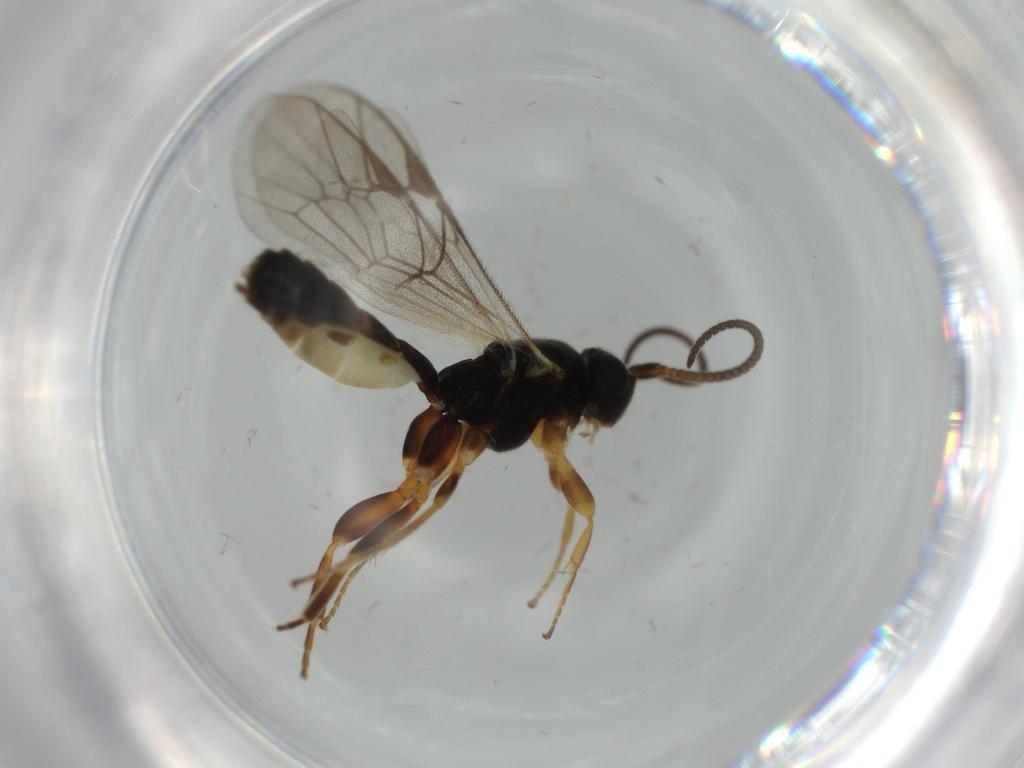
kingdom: Animalia
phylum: Arthropoda
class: Insecta
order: Hymenoptera
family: Ichneumonidae
